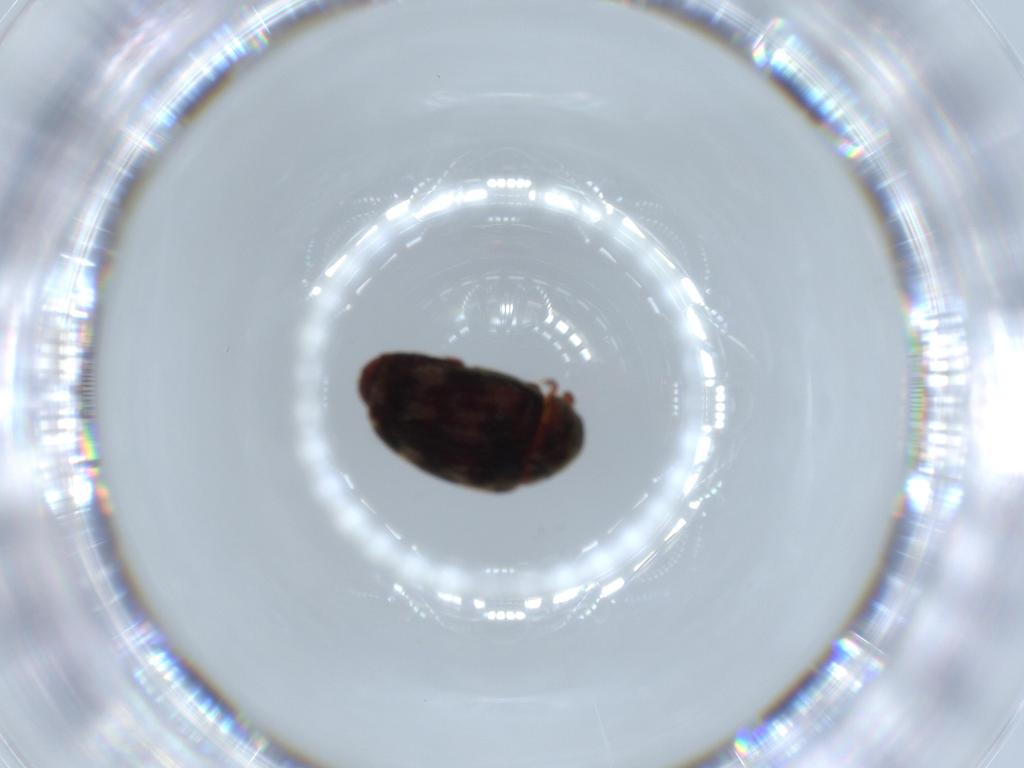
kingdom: Animalia
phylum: Arthropoda
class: Insecta
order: Coleoptera
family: Dermestidae
